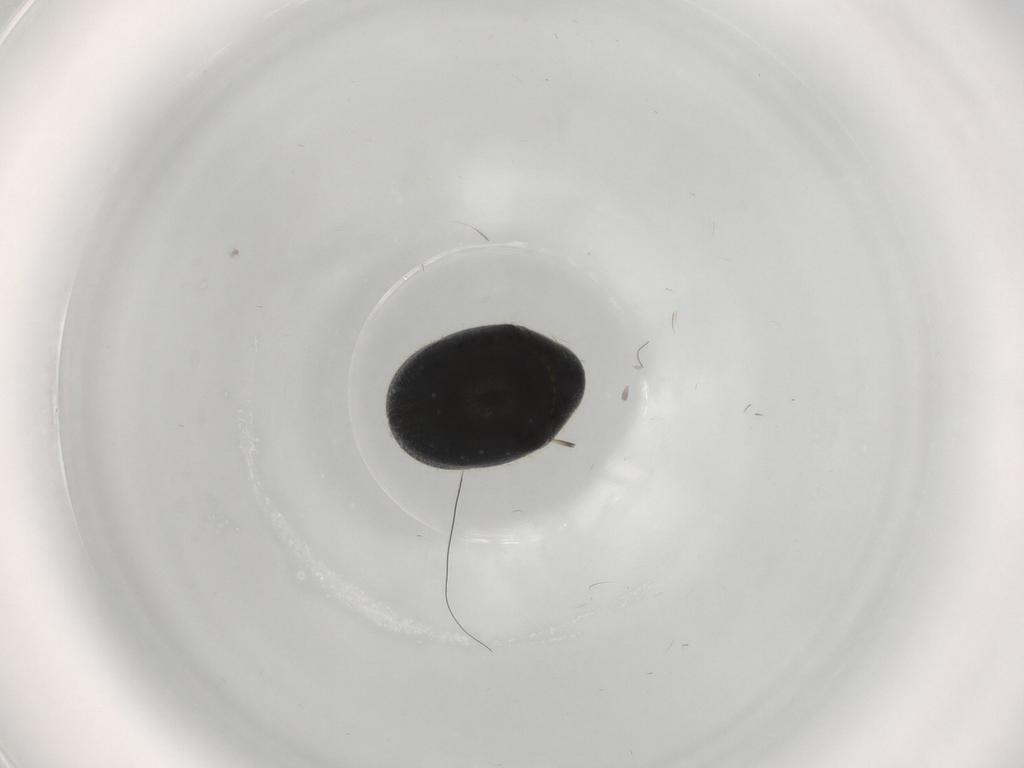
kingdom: Animalia
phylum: Arthropoda
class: Insecta
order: Coleoptera
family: Ptinidae
